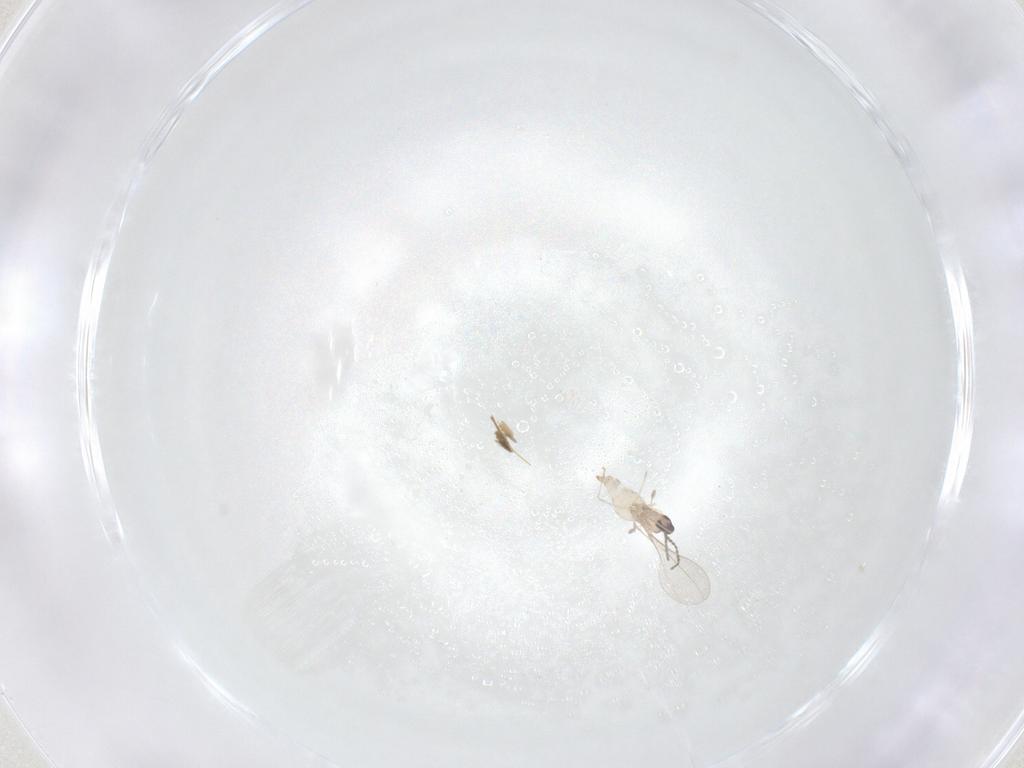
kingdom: Animalia
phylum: Arthropoda
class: Insecta
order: Diptera
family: Cecidomyiidae
